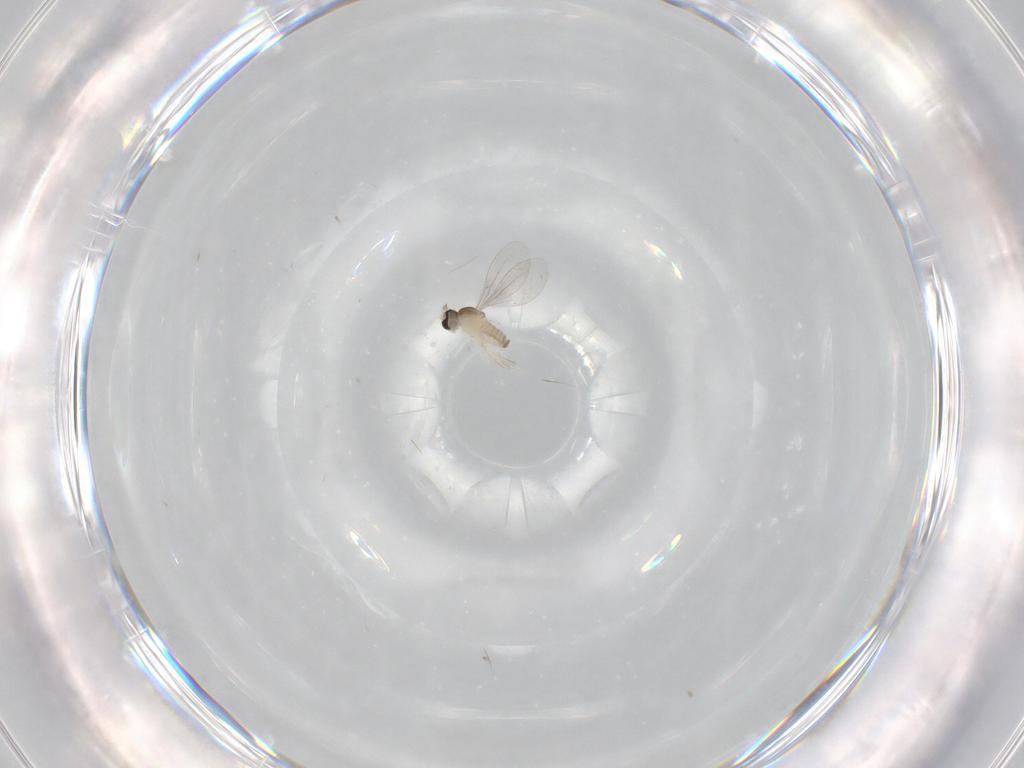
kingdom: Animalia
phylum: Arthropoda
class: Insecta
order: Diptera
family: Cecidomyiidae
